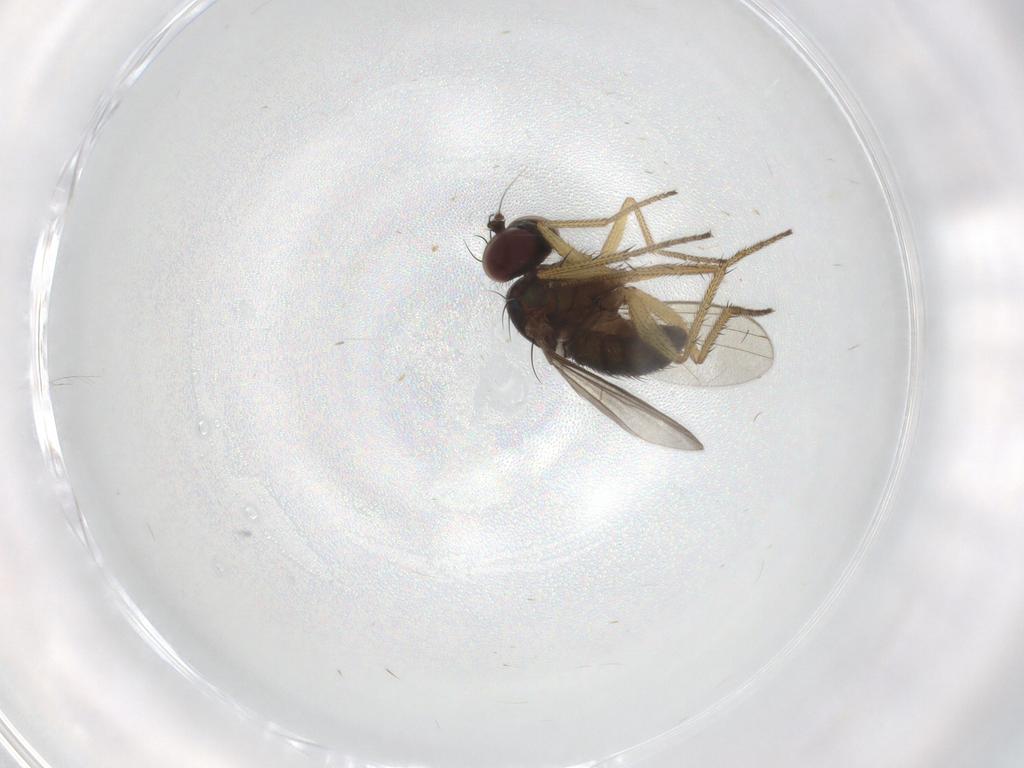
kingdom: Animalia
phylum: Arthropoda
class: Insecta
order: Diptera
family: Dolichopodidae
